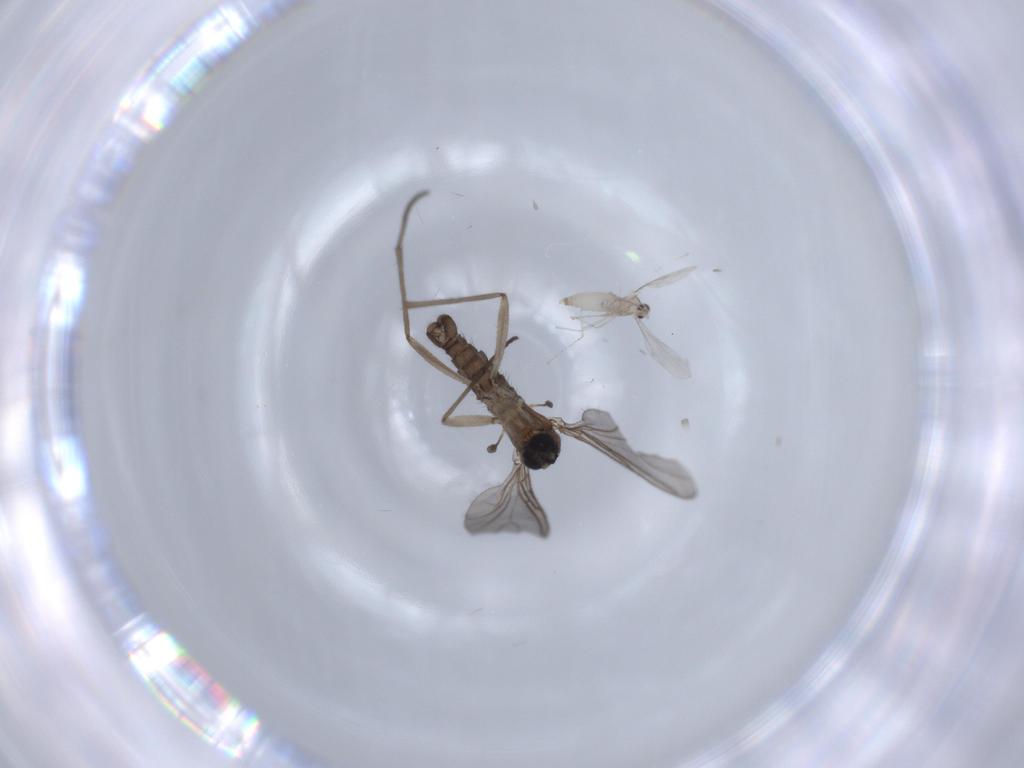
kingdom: Animalia
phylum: Arthropoda
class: Insecta
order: Diptera
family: Cecidomyiidae
